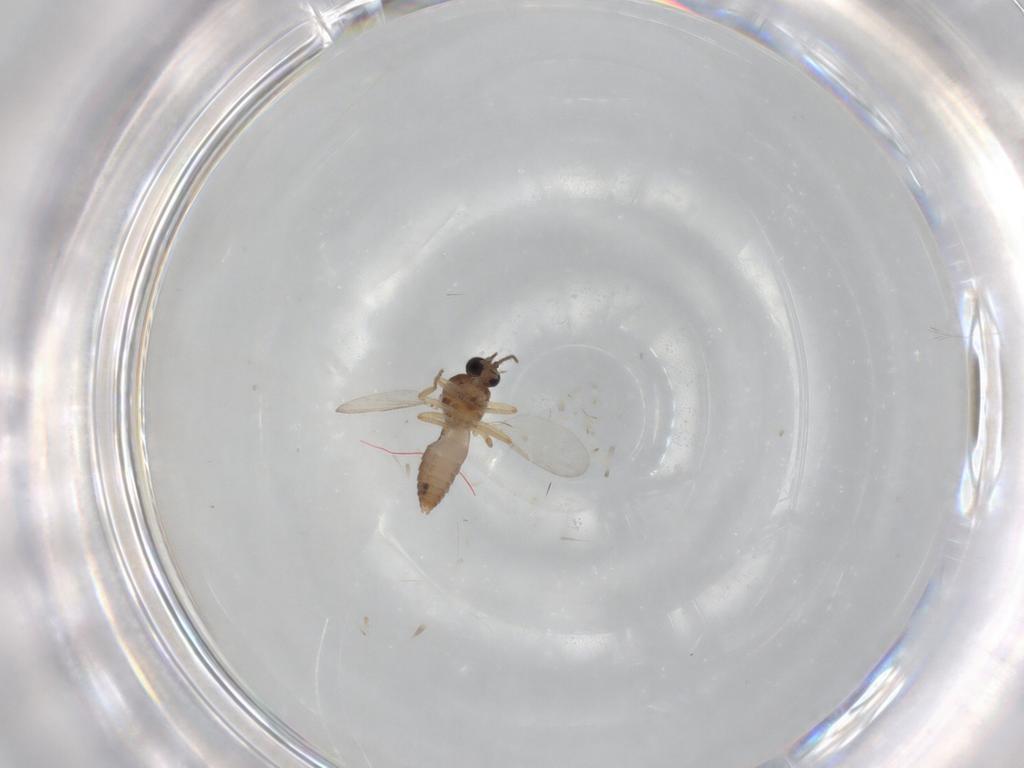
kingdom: Animalia
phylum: Arthropoda
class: Insecta
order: Diptera
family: Ceratopogonidae
